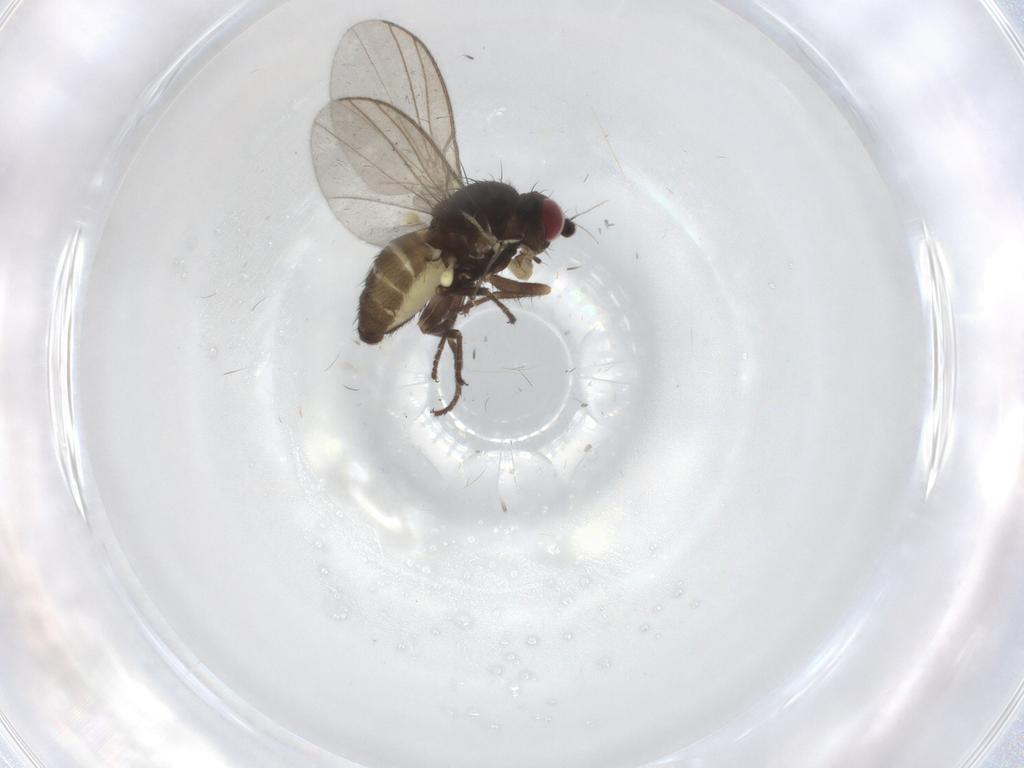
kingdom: Animalia
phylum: Arthropoda
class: Insecta
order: Diptera
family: Agromyzidae
